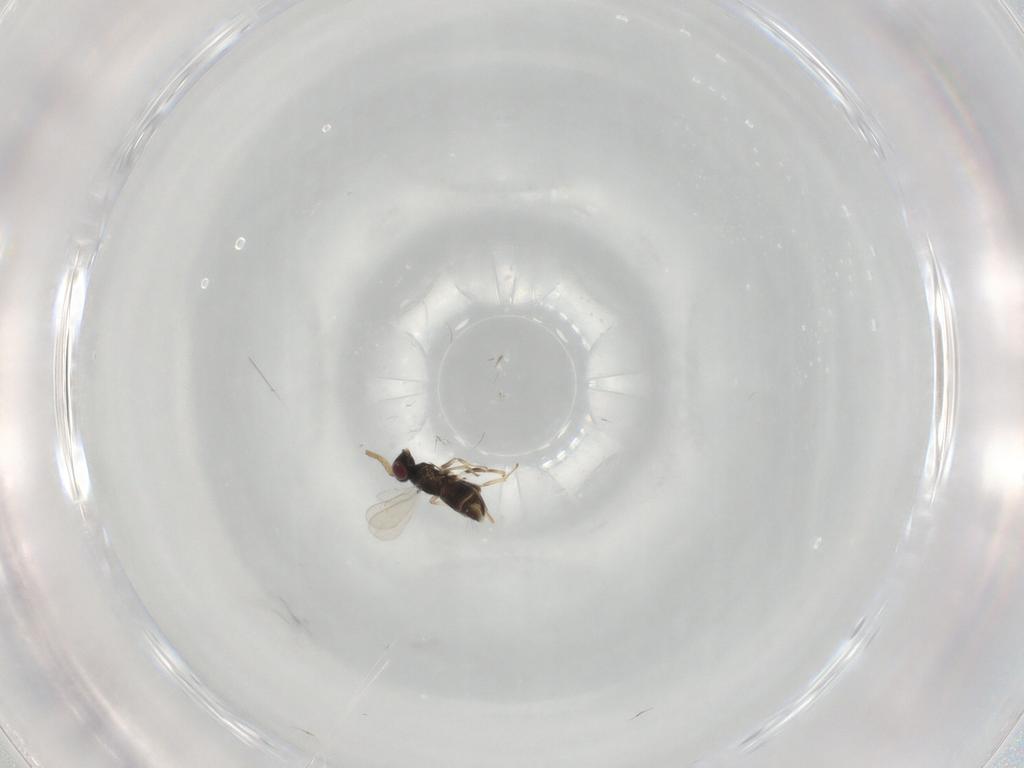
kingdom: Animalia
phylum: Arthropoda
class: Insecta
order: Hymenoptera
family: Aphelinidae
